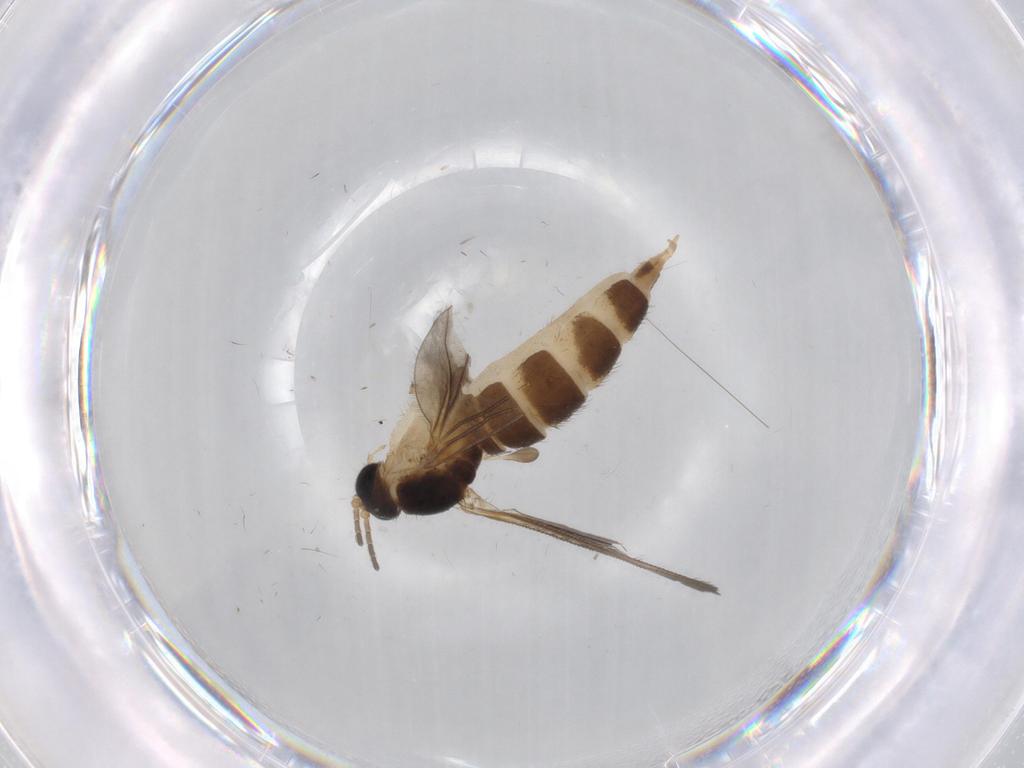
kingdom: Animalia
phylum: Arthropoda
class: Insecta
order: Diptera
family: Sciaridae
